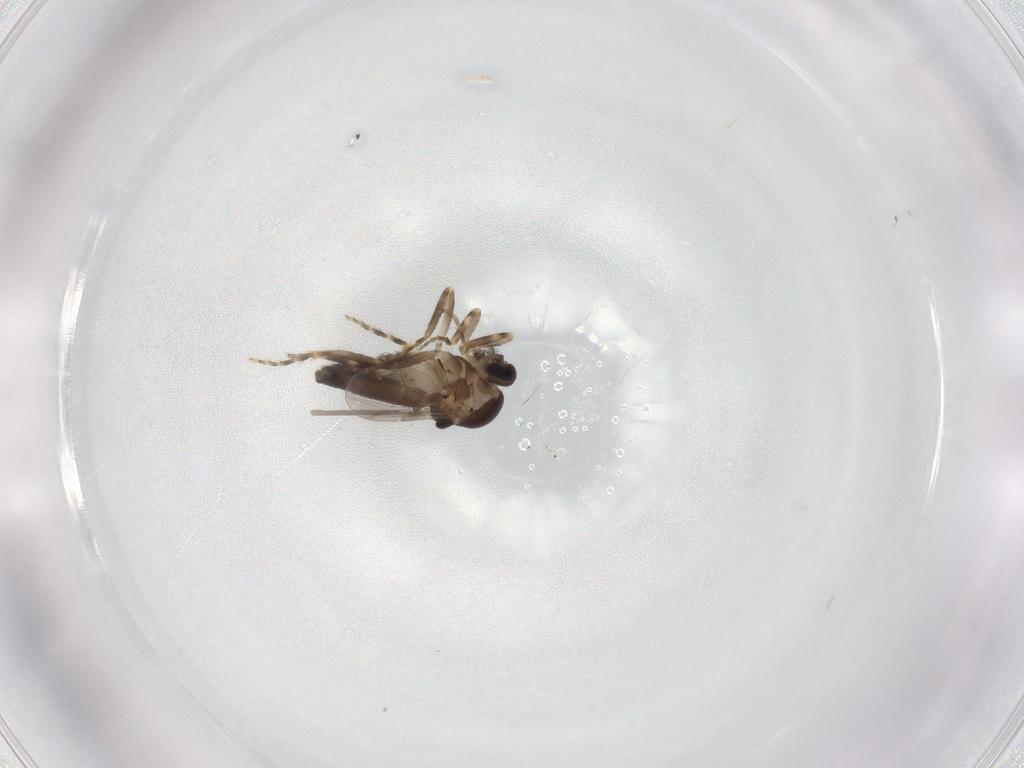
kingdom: Animalia
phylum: Arthropoda
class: Insecta
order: Diptera
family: Ceratopogonidae
